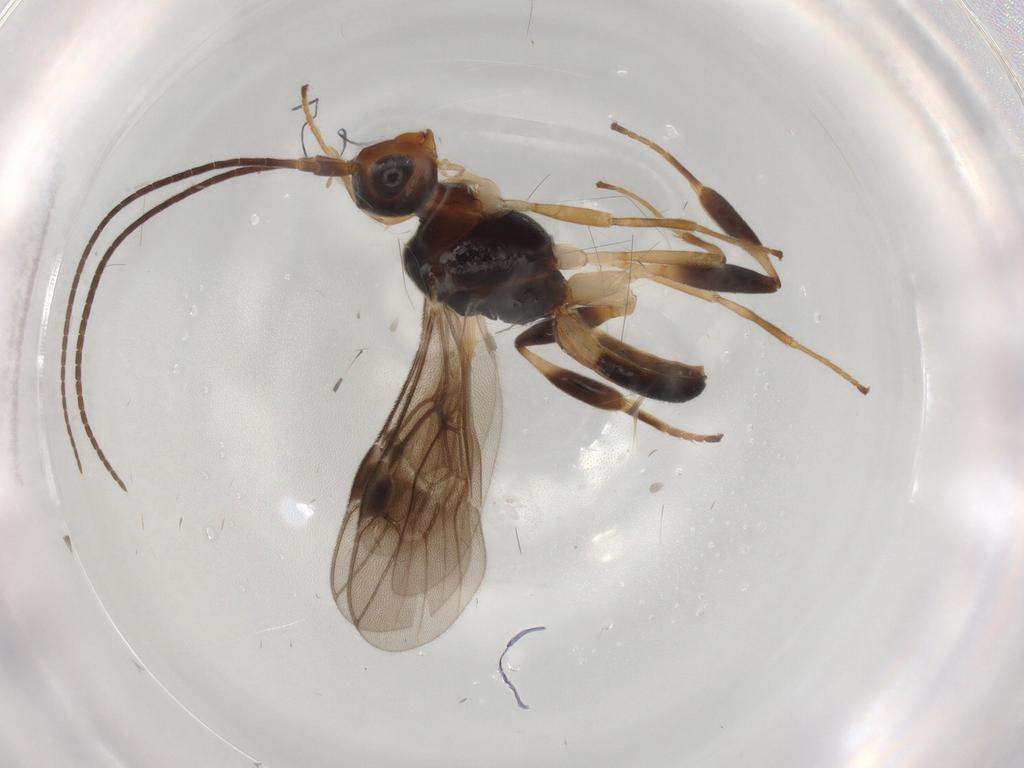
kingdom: Animalia
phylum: Arthropoda
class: Insecta
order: Hymenoptera
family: Braconidae
